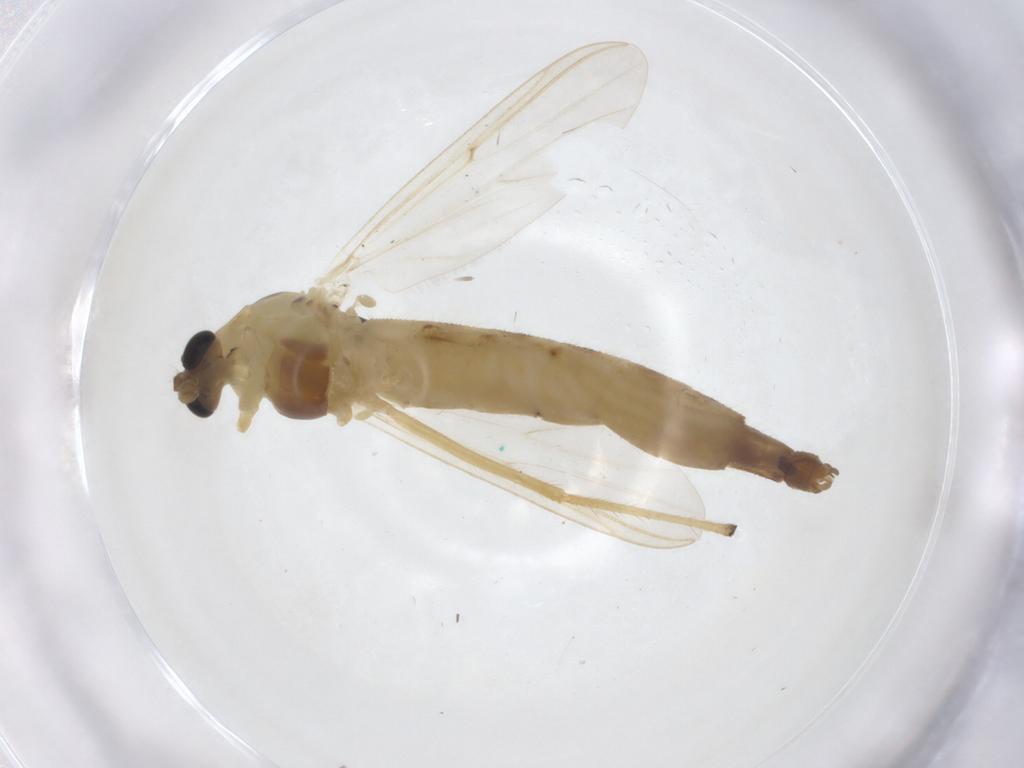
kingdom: Animalia
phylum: Arthropoda
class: Insecta
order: Diptera
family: Chironomidae
